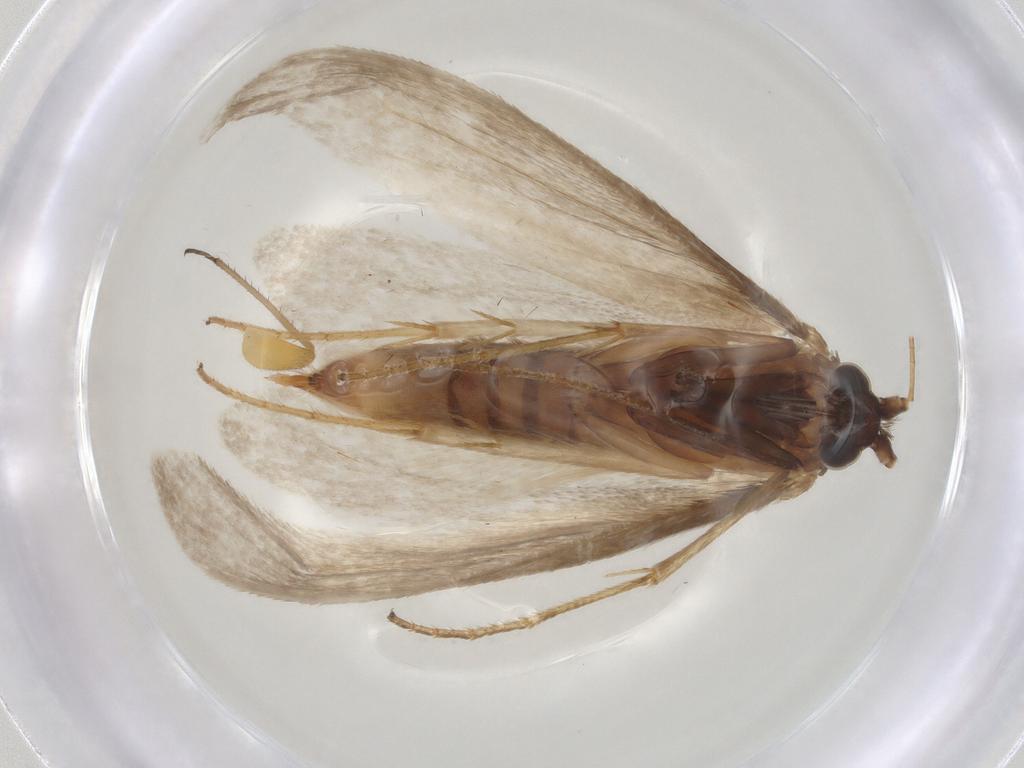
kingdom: Animalia
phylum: Arthropoda
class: Insecta
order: Lepidoptera
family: Adelidae
